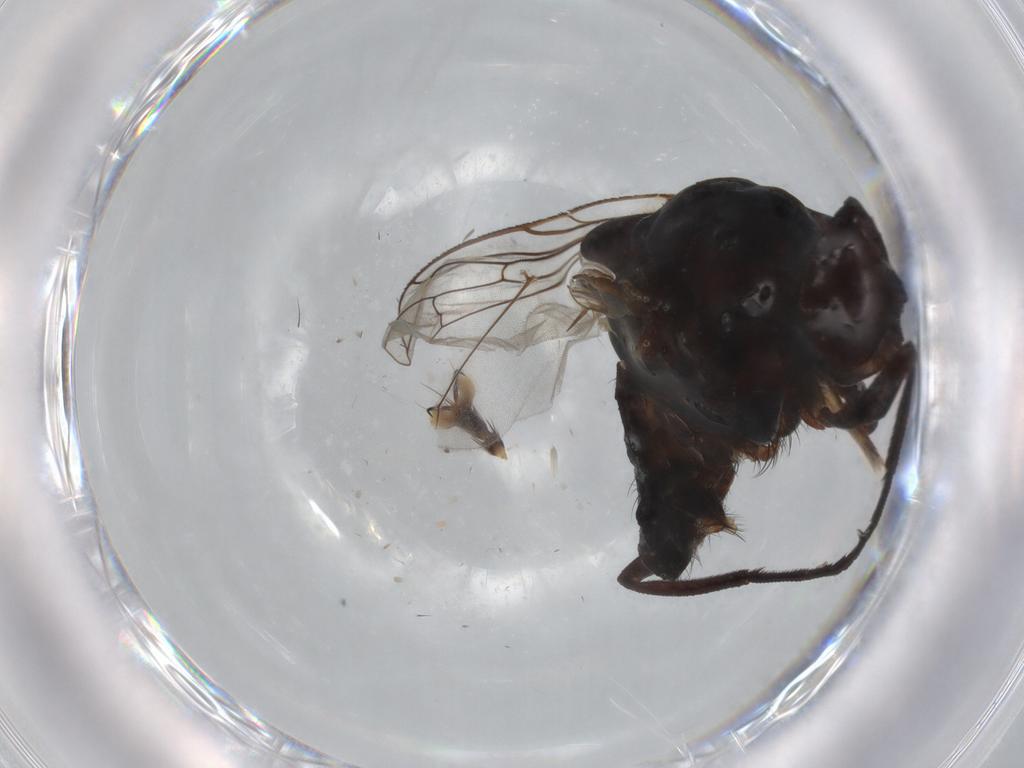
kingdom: Animalia
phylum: Arthropoda
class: Insecta
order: Diptera
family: Anthomyiidae
